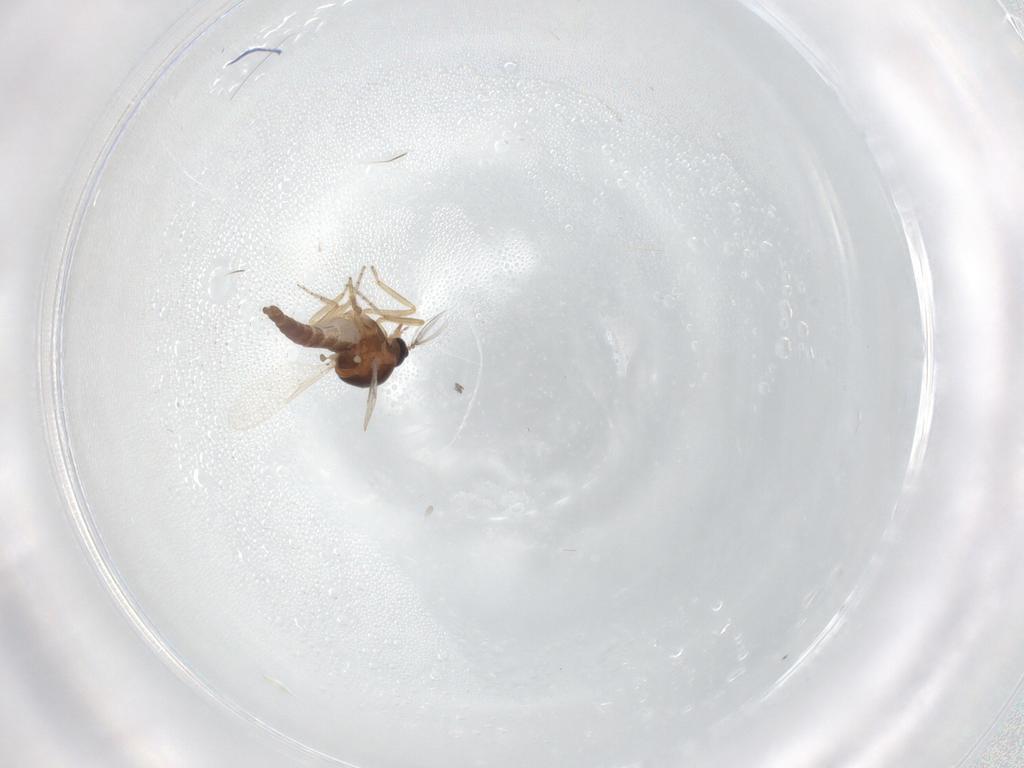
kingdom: Animalia
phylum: Arthropoda
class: Insecta
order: Diptera
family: Ceratopogonidae
